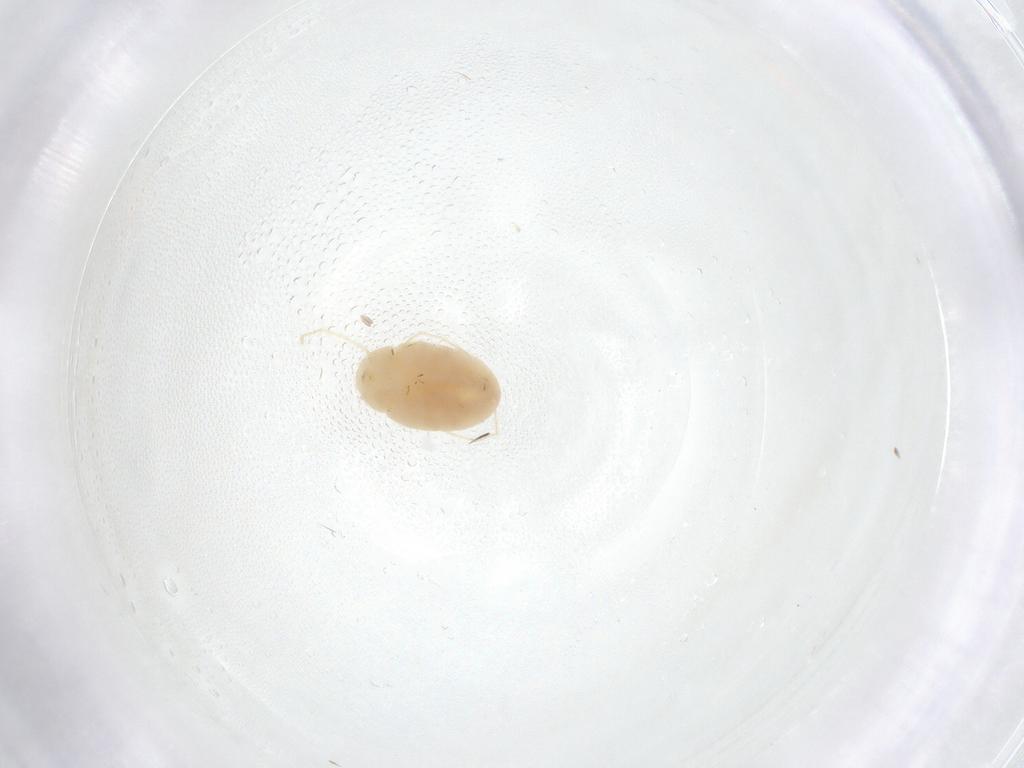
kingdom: Animalia
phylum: Arthropoda
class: Arachnida
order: Trombidiformes
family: Erythraeidae
